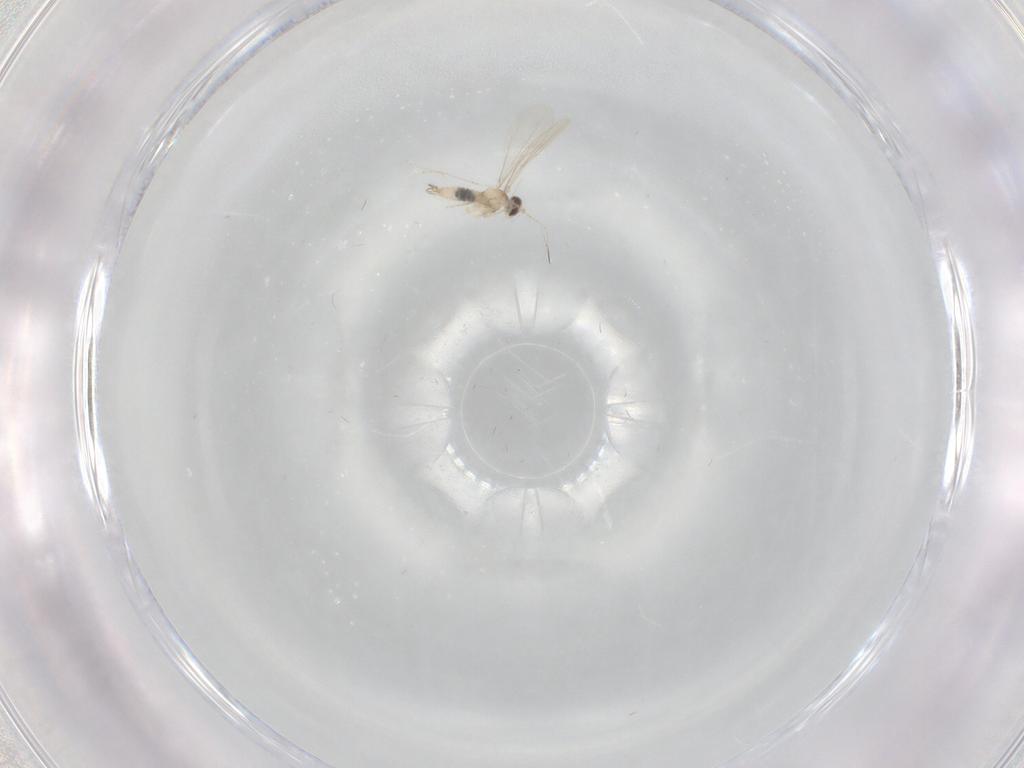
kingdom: Animalia
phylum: Arthropoda
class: Insecta
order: Diptera
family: Cecidomyiidae
